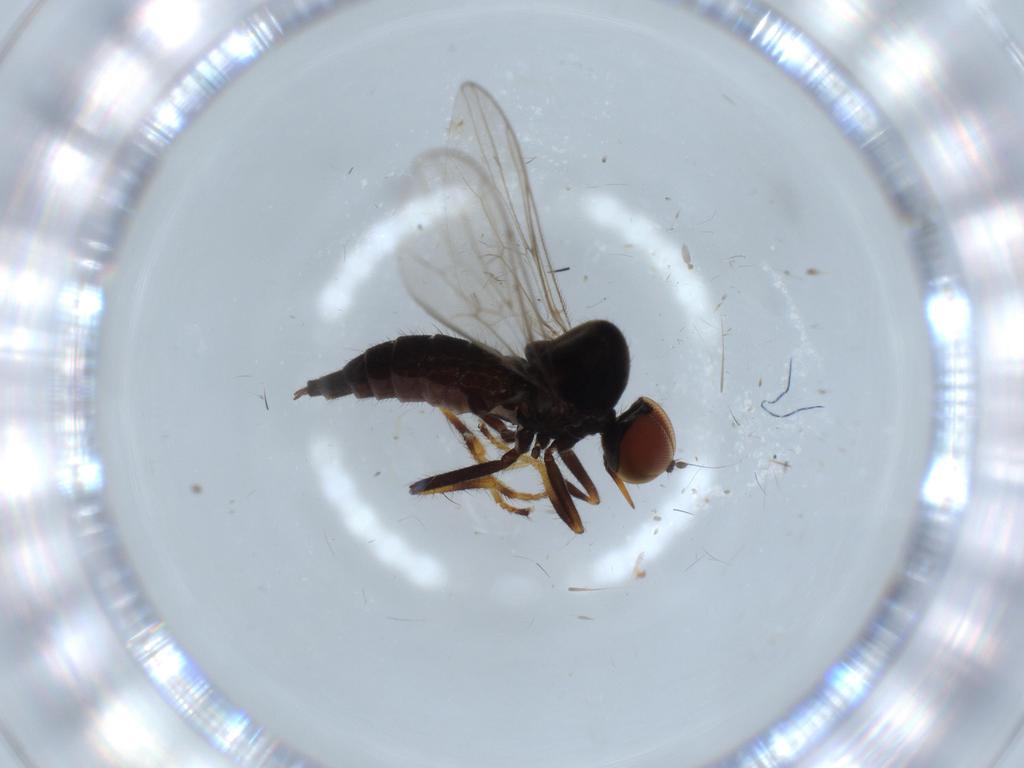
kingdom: Animalia
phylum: Arthropoda
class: Insecta
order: Diptera
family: Hybotidae
